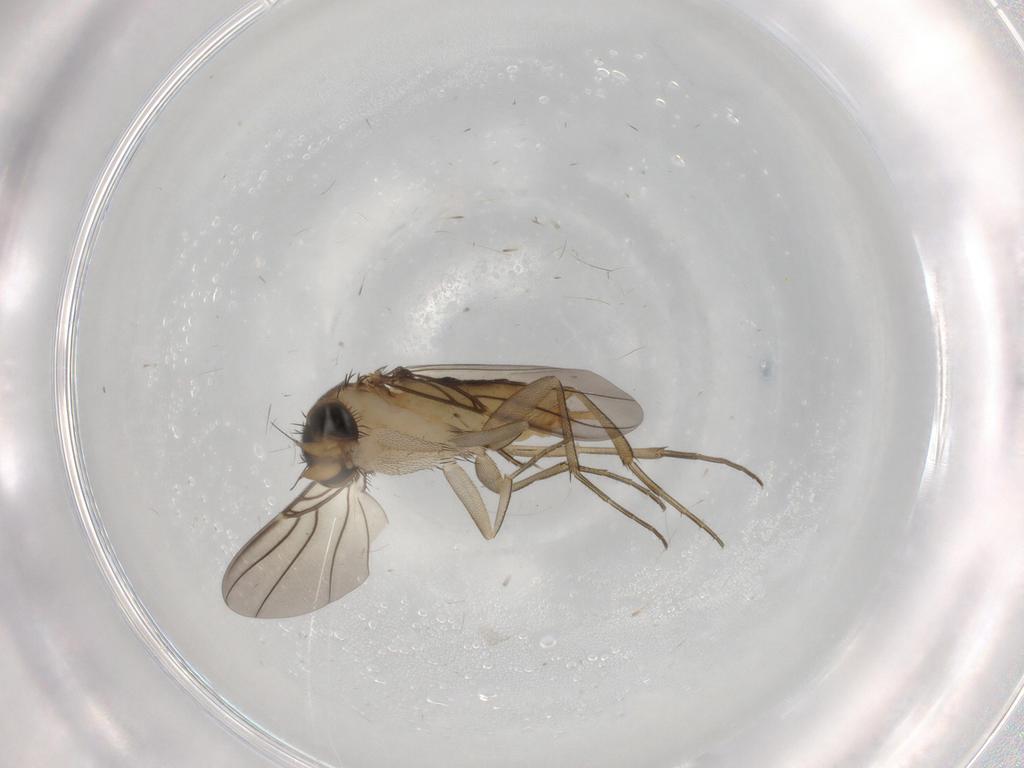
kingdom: Animalia
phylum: Arthropoda
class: Insecta
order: Diptera
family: Phoridae
